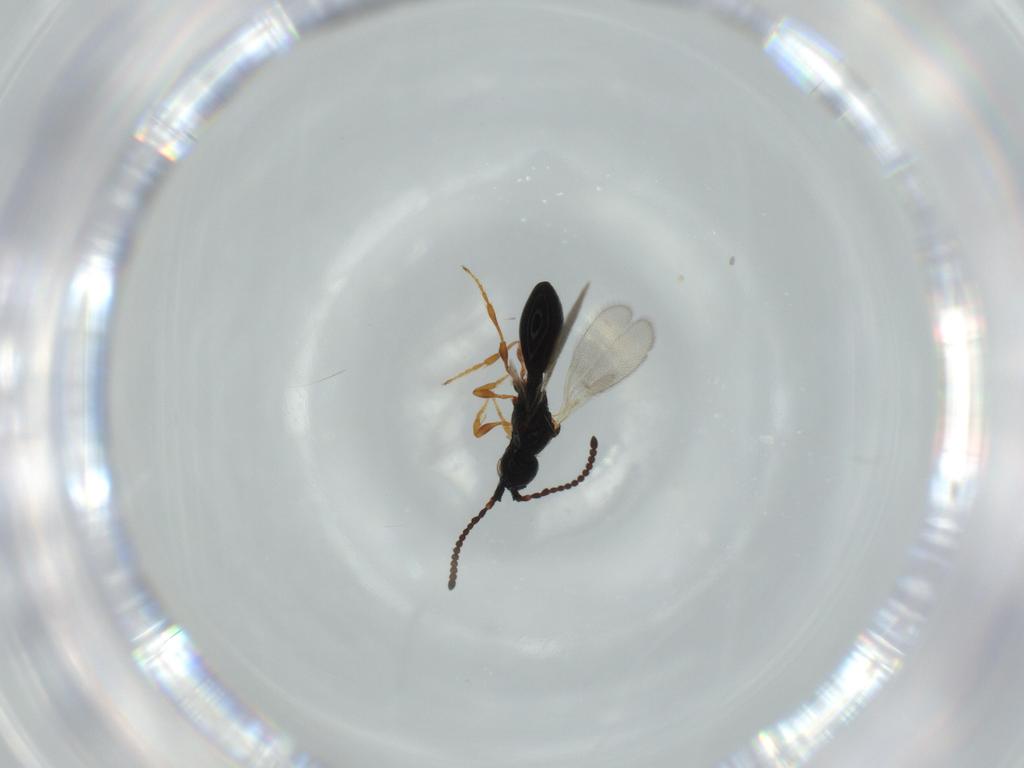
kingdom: Animalia
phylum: Arthropoda
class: Insecta
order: Hymenoptera
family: Diapriidae
